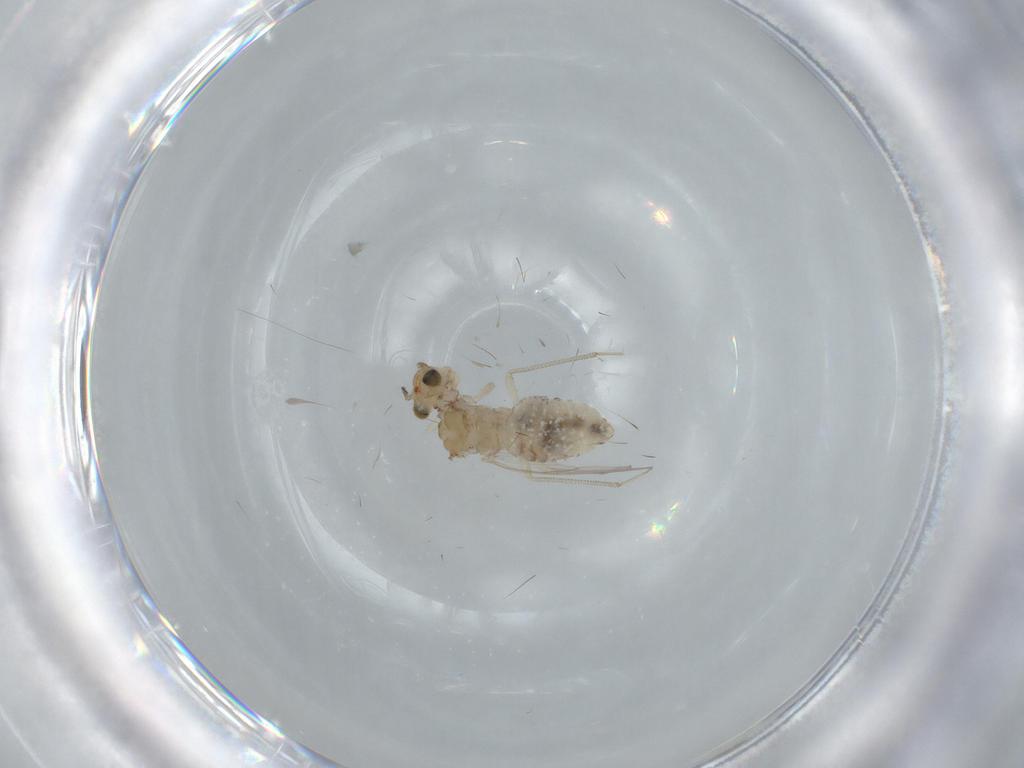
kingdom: Animalia
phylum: Arthropoda
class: Insecta
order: Psocodea
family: Lachesillidae
